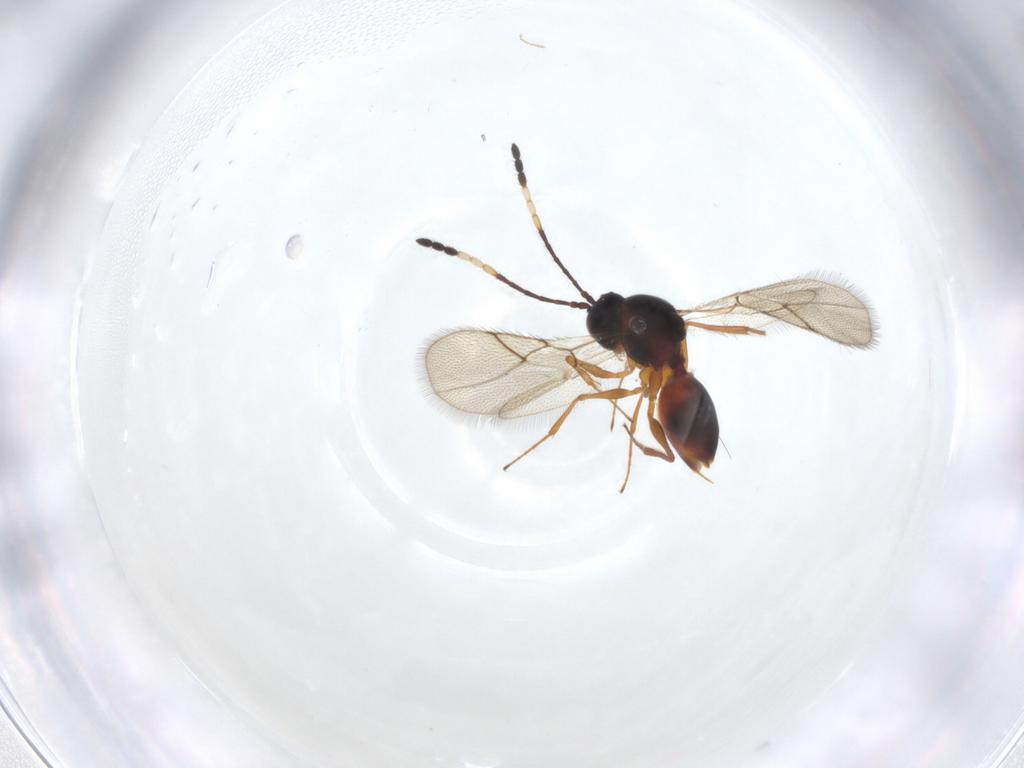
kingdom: Animalia
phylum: Arthropoda
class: Insecta
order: Hymenoptera
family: Figitidae
